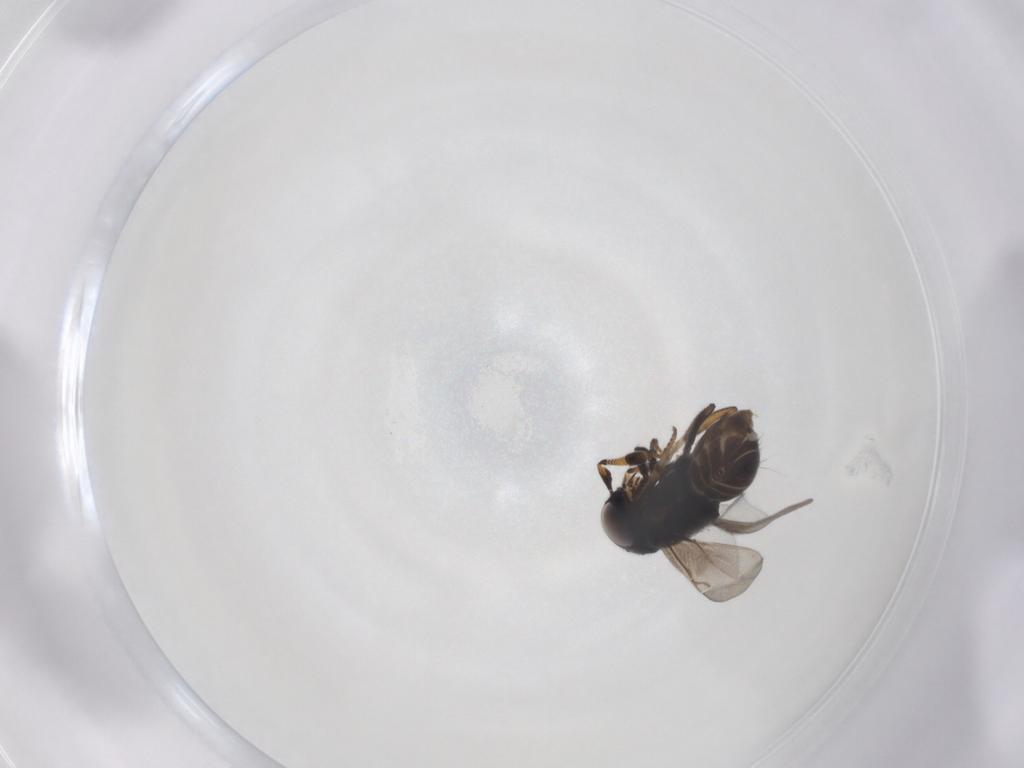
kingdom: Animalia
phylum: Arthropoda
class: Insecta
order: Hymenoptera
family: Encyrtidae
